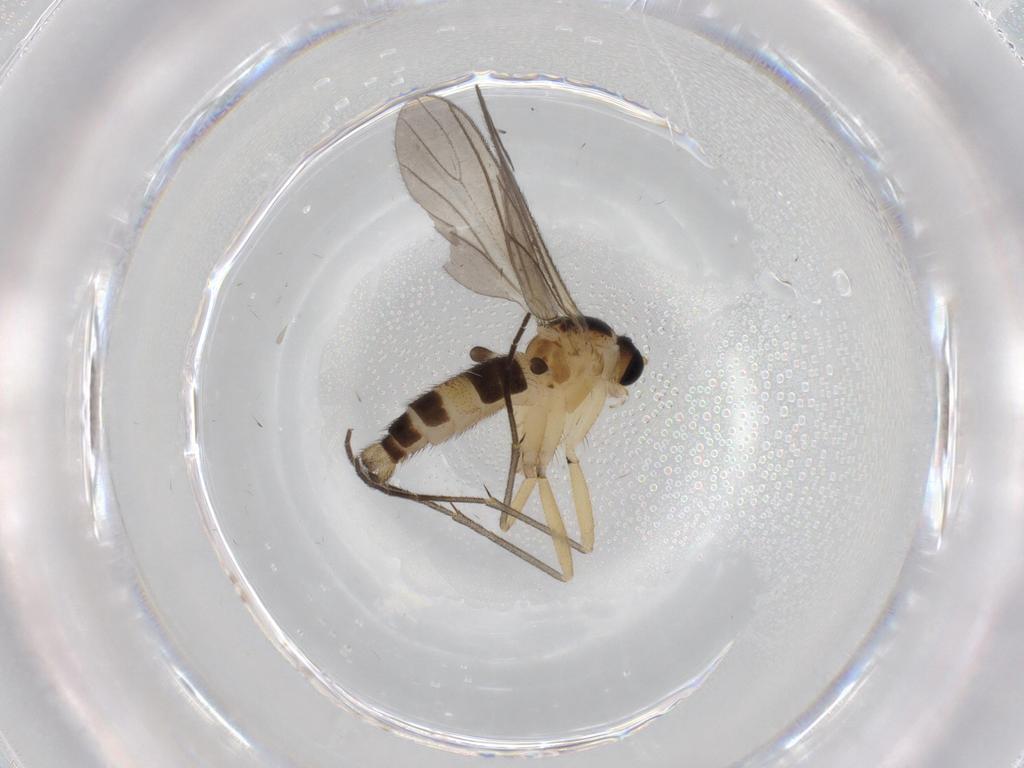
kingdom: Animalia
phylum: Arthropoda
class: Insecta
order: Diptera
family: Sciaridae
